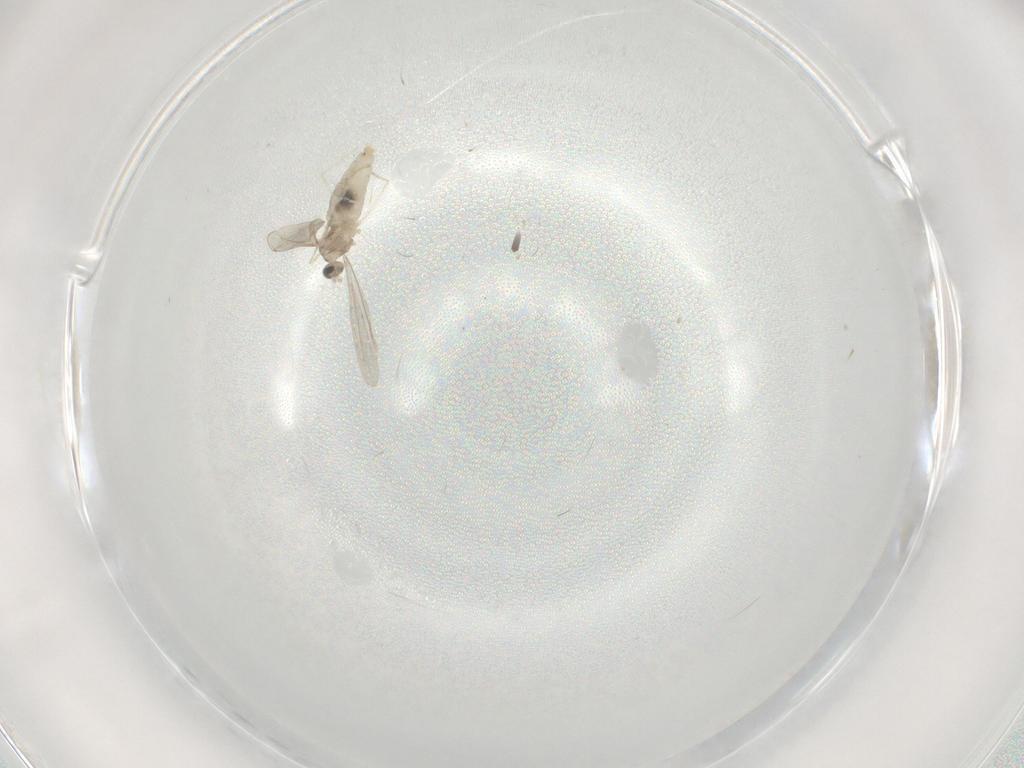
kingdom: Animalia
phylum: Arthropoda
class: Insecta
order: Diptera
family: Cecidomyiidae
